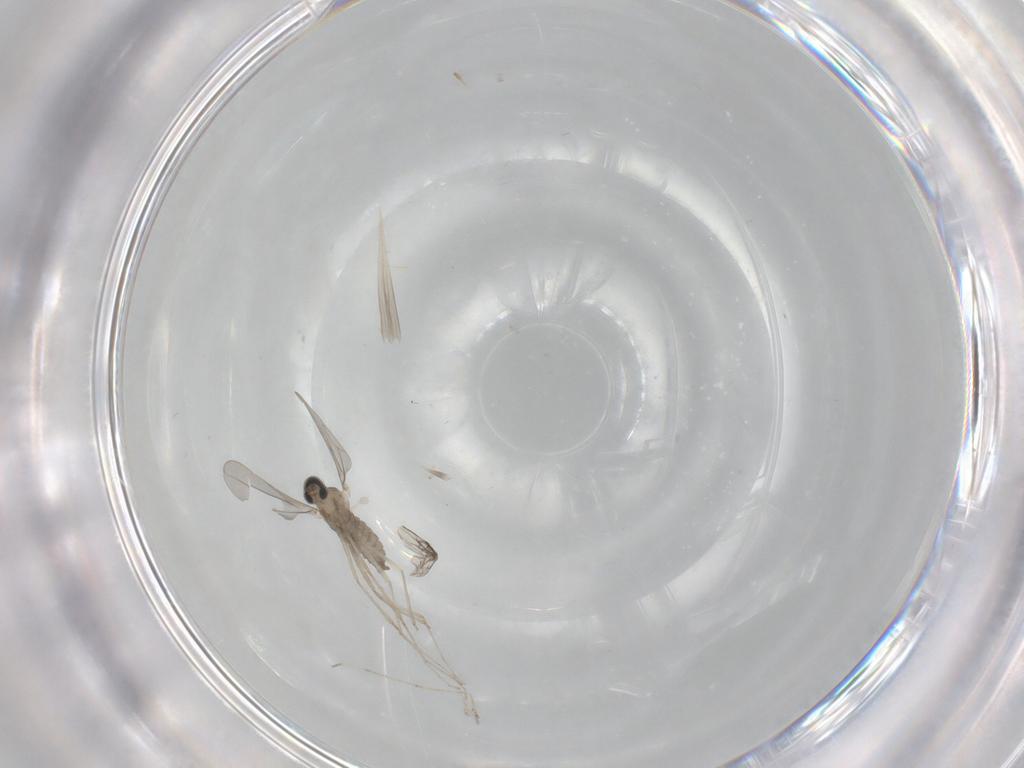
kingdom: Animalia
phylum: Arthropoda
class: Insecta
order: Diptera
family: Cecidomyiidae
